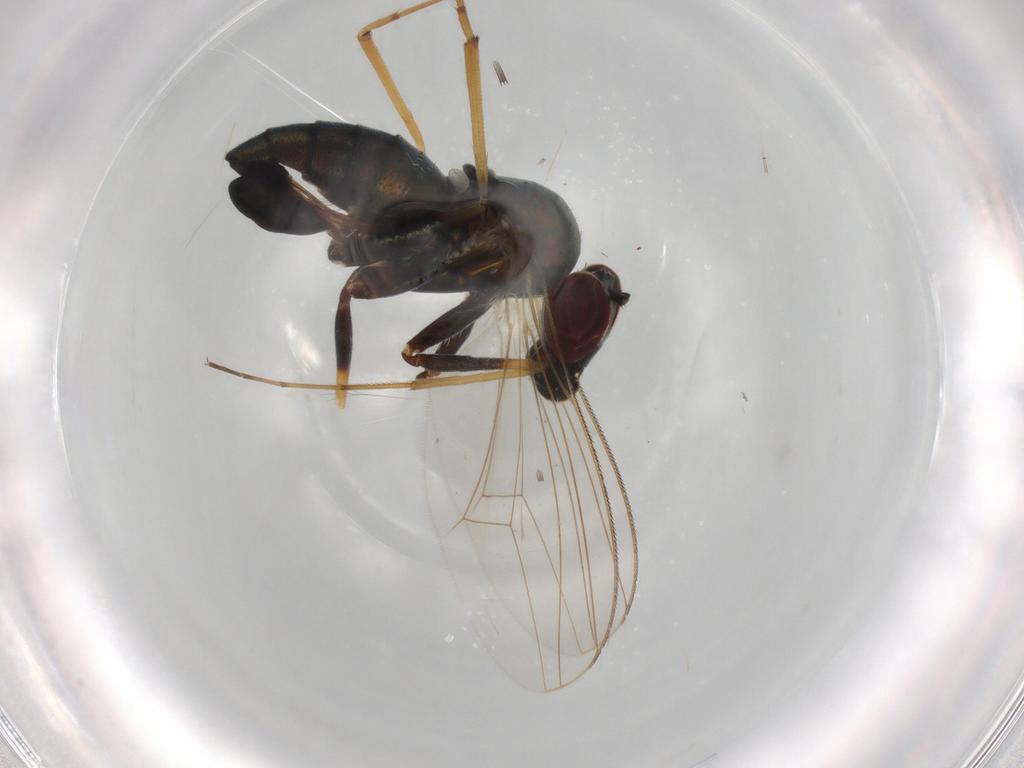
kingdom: Animalia
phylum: Arthropoda
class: Insecta
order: Diptera
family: Dolichopodidae
